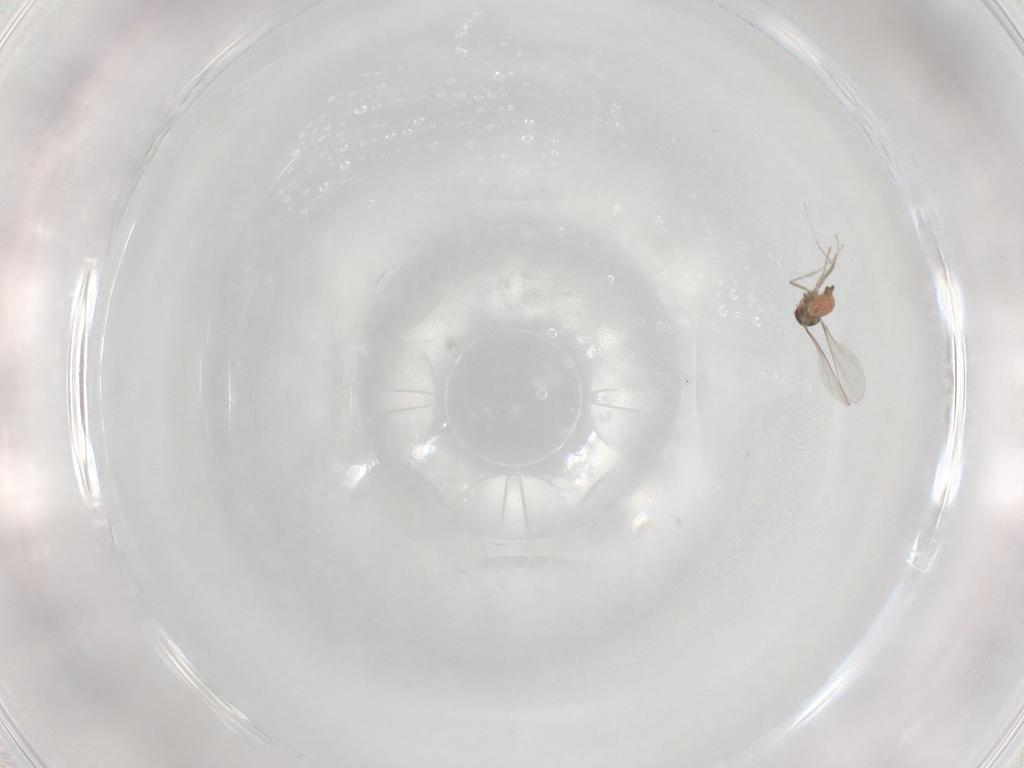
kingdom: Animalia
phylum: Arthropoda
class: Insecta
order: Diptera
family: Cecidomyiidae
